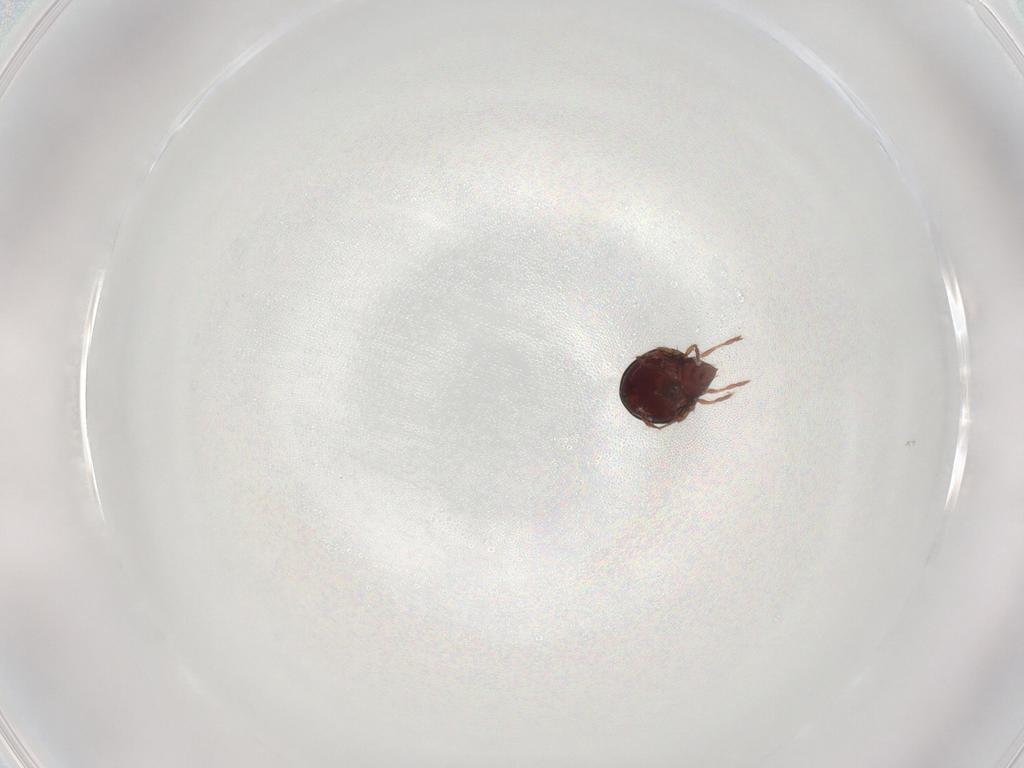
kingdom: Animalia
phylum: Arthropoda
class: Arachnida
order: Sarcoptiformes
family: Ceratoppiidae
